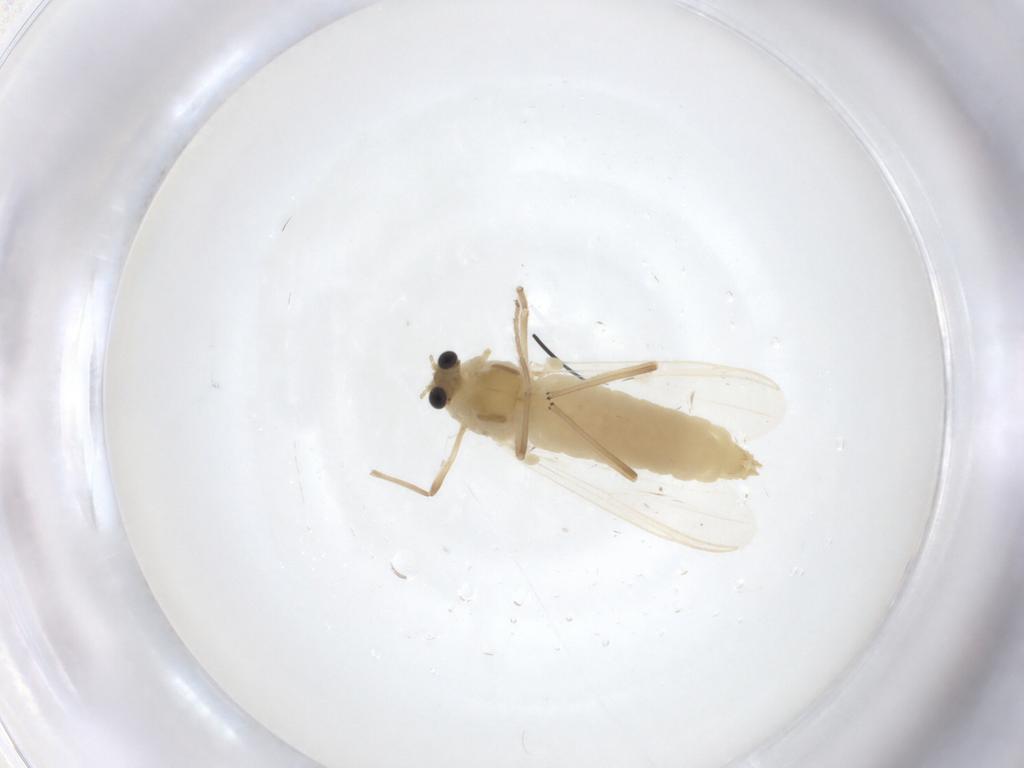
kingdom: Animalia
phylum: Arthropoda
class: Insecta
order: Diptera
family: Chironomidae
